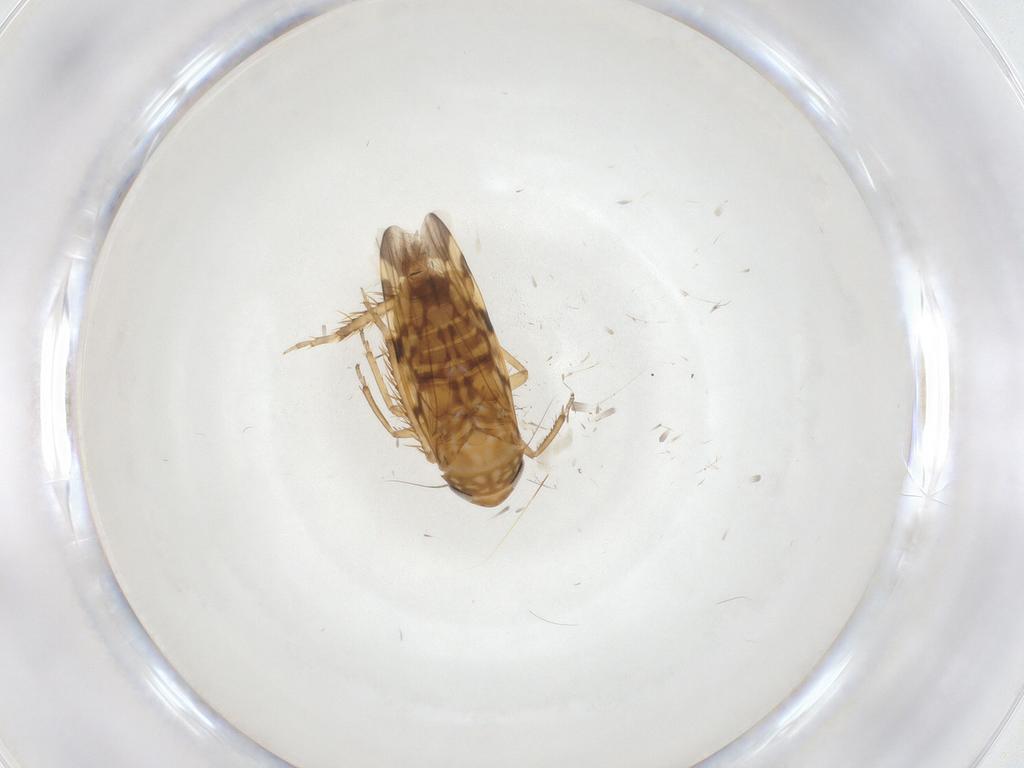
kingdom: Animalia
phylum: Arthropoda
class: Insecta
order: Hemiptera
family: Cicadellidae
